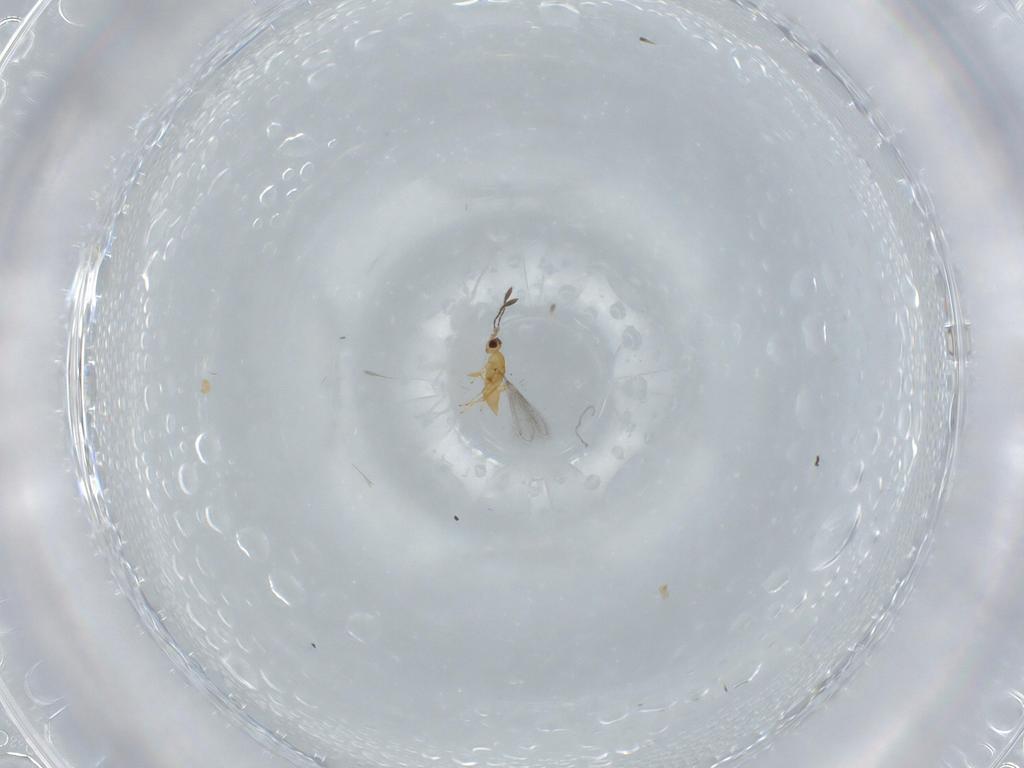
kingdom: Animalia
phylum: Arthropoda
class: Insecta
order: Hymenoptera
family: Mymaridae
